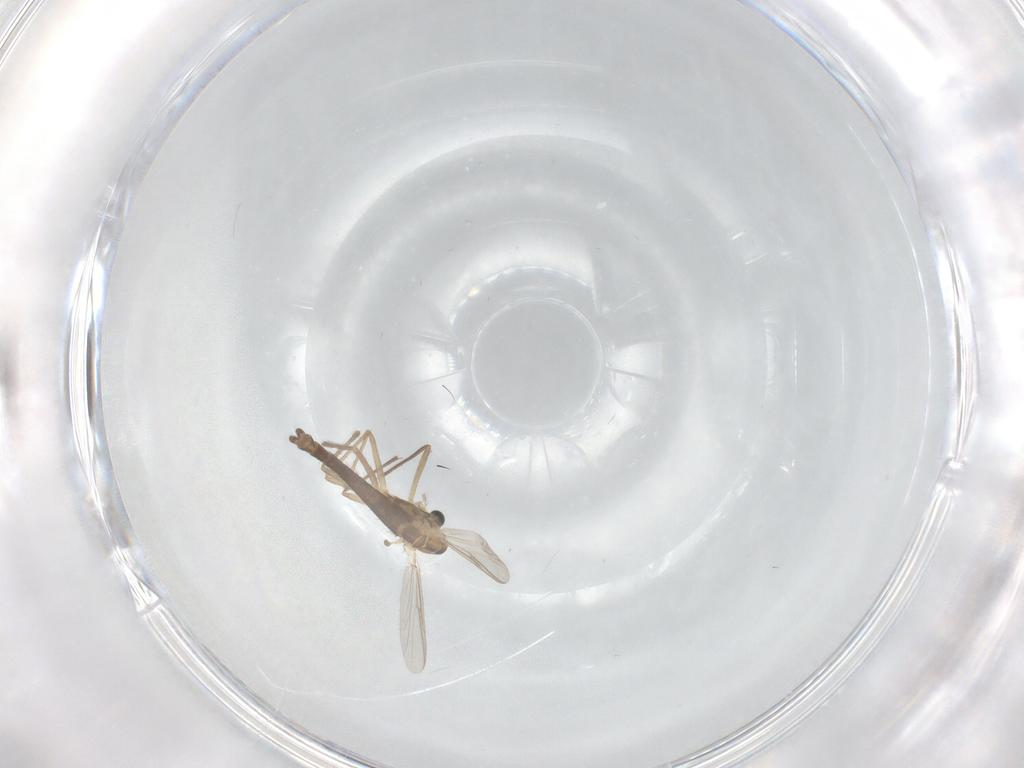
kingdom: Animalia
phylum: Arthropoda
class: Insecta
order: Diptera
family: Chironomidae
